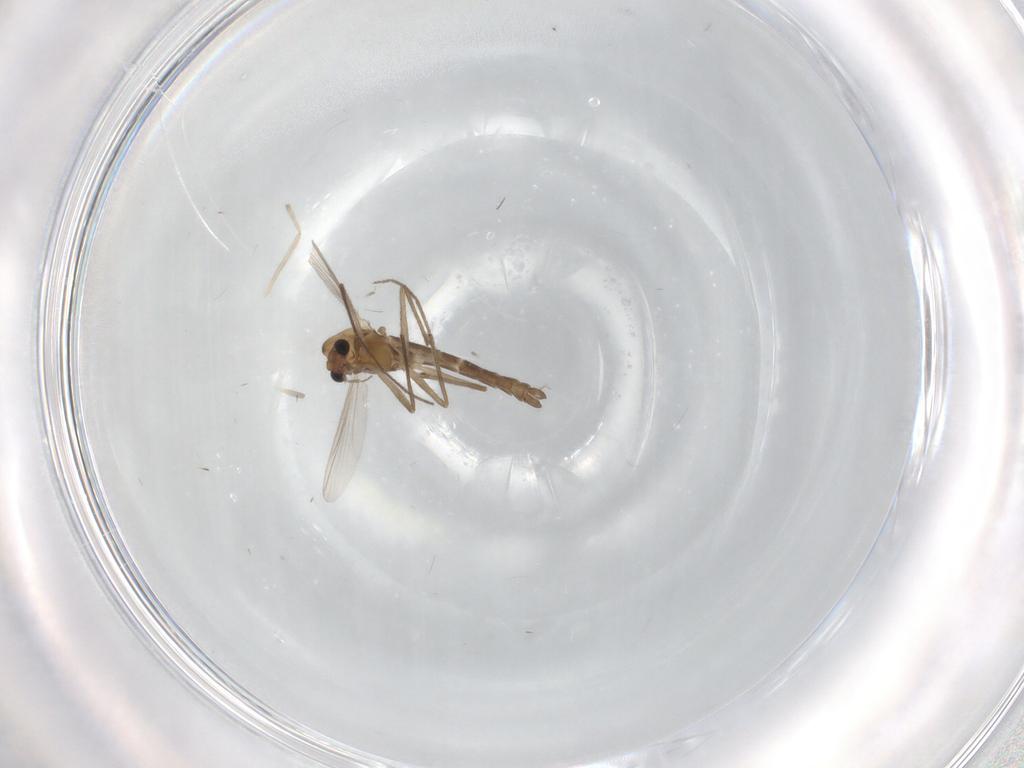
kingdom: Animalia
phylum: Arthropoda
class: Insecta
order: Diptera
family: Chironomidae
